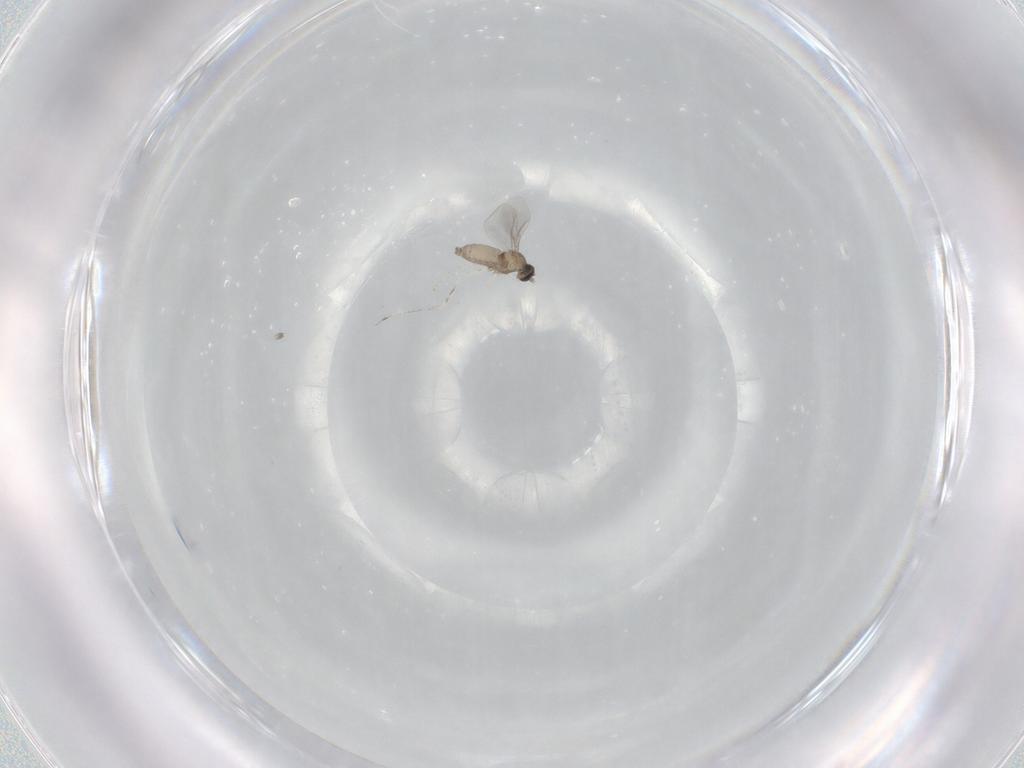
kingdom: Animalia
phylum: Arthropoda
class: Insecta
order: Diptera
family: Cecidomyiidae
